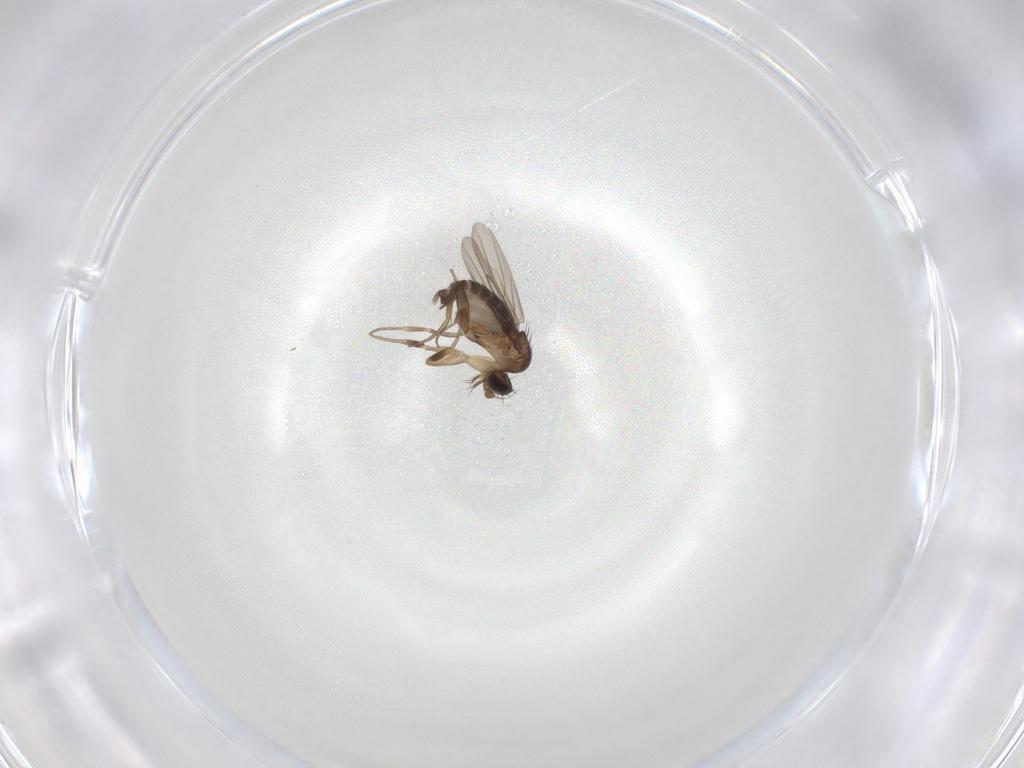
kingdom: Animalia
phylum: Arthropoda
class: Insecta
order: Diptera
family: Phoridae
